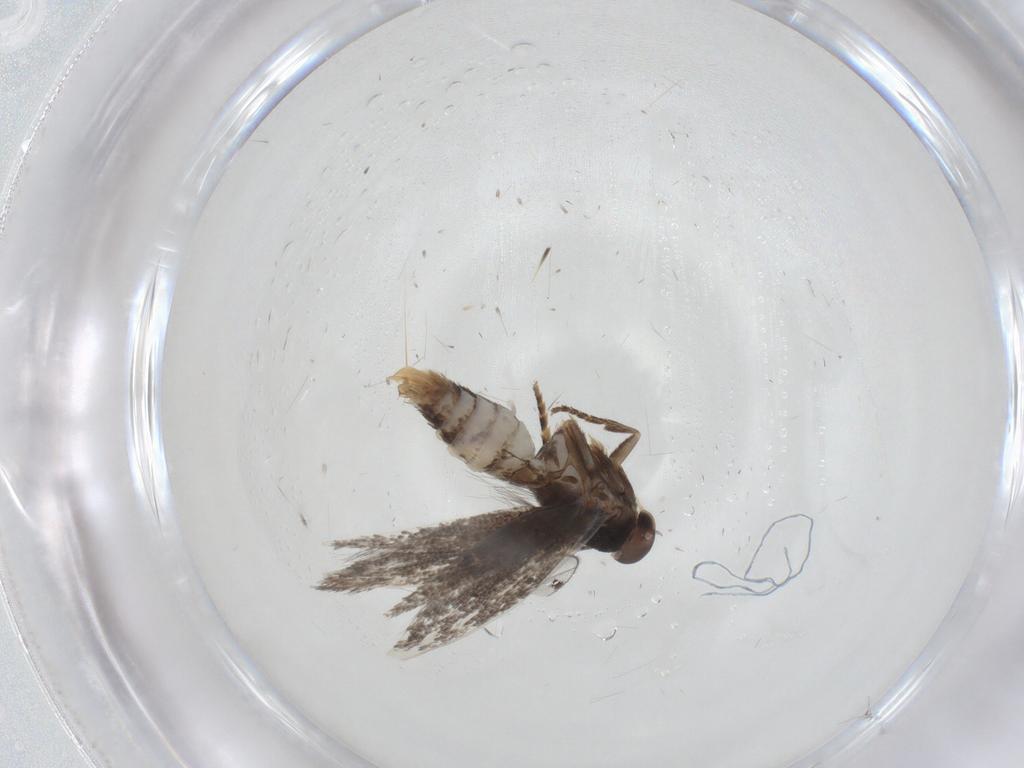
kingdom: Animalia
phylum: Arthropoda
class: Insecta
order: Lepidoptera
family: Elachistidae
